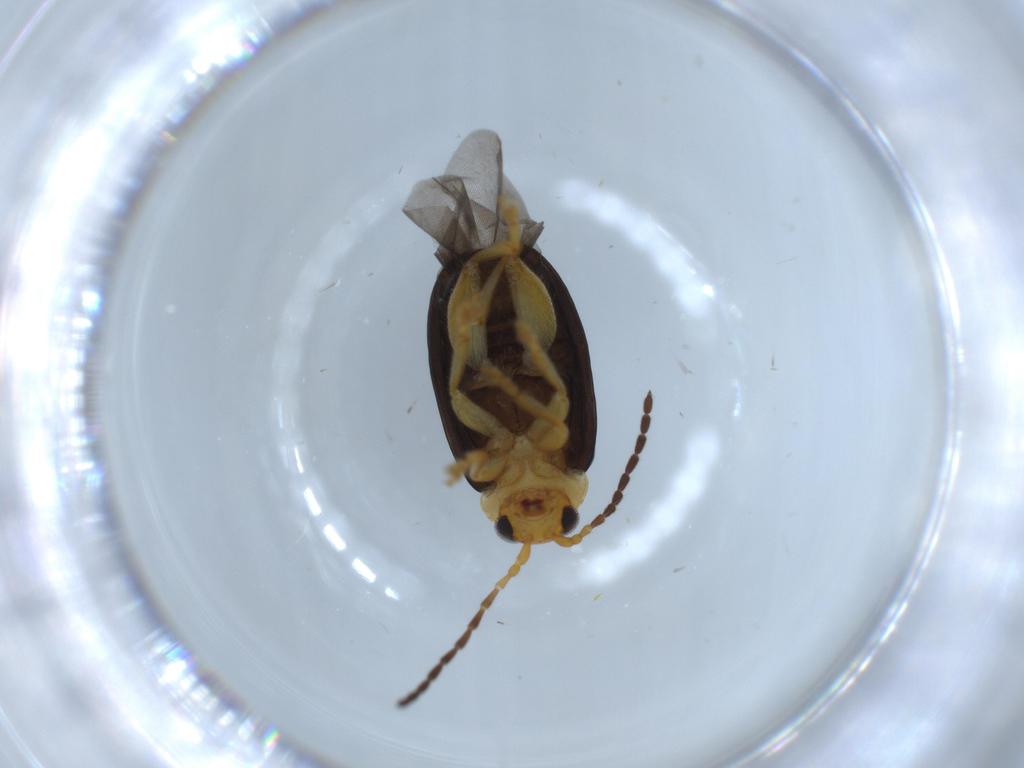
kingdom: Animalia
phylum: Arthropoda
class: Insecta
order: Coleoptera
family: Chrysomelidae
